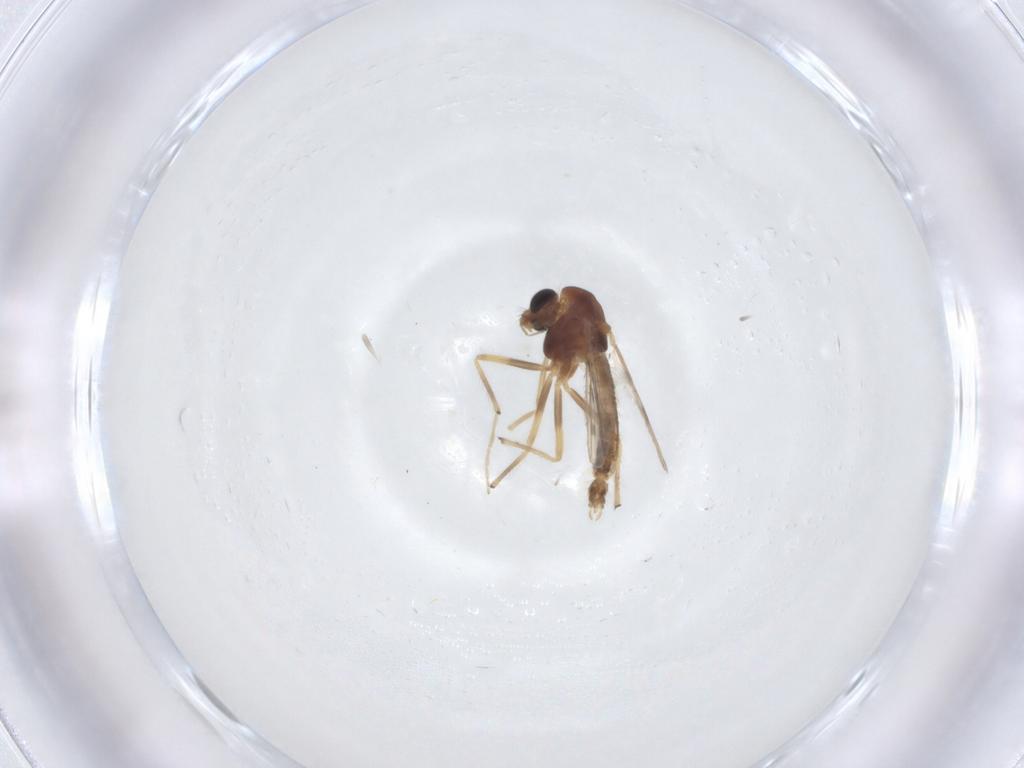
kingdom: Animalia
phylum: Arthropoda
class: Insecta
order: Diptera
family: Chironomidae
